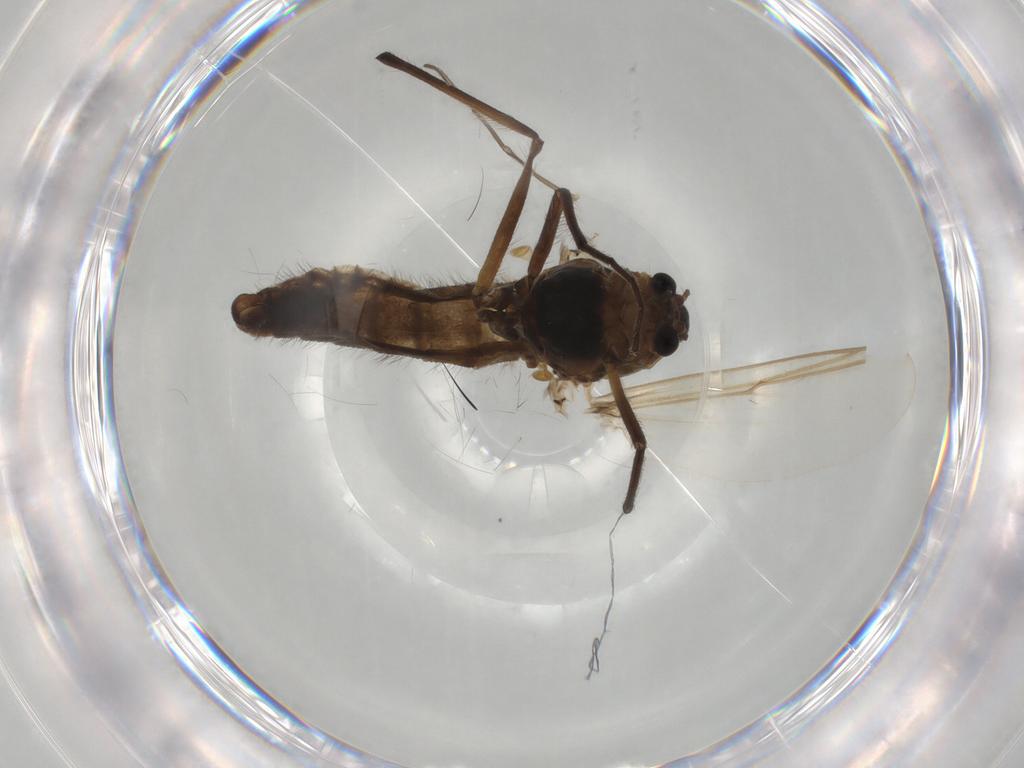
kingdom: Animalia
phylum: Arthropoda
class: Insecta
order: Diptera
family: Chironomidae
